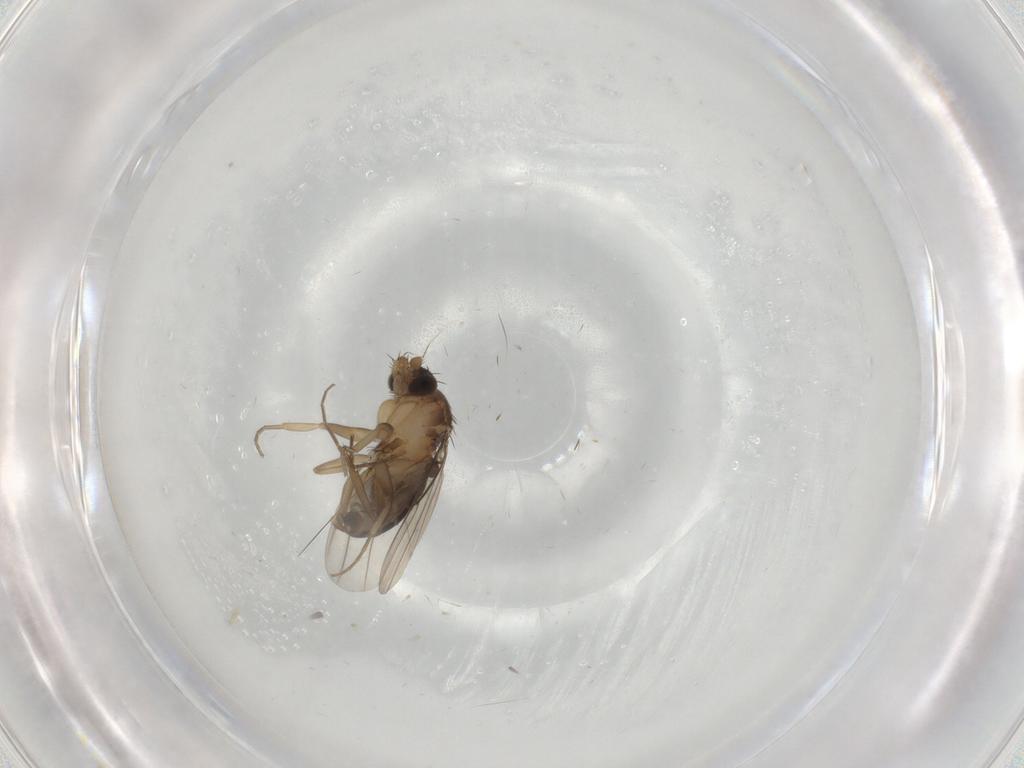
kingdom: Animalia
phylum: Arthropoda
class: Insecta
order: Diptera
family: Phoridae
